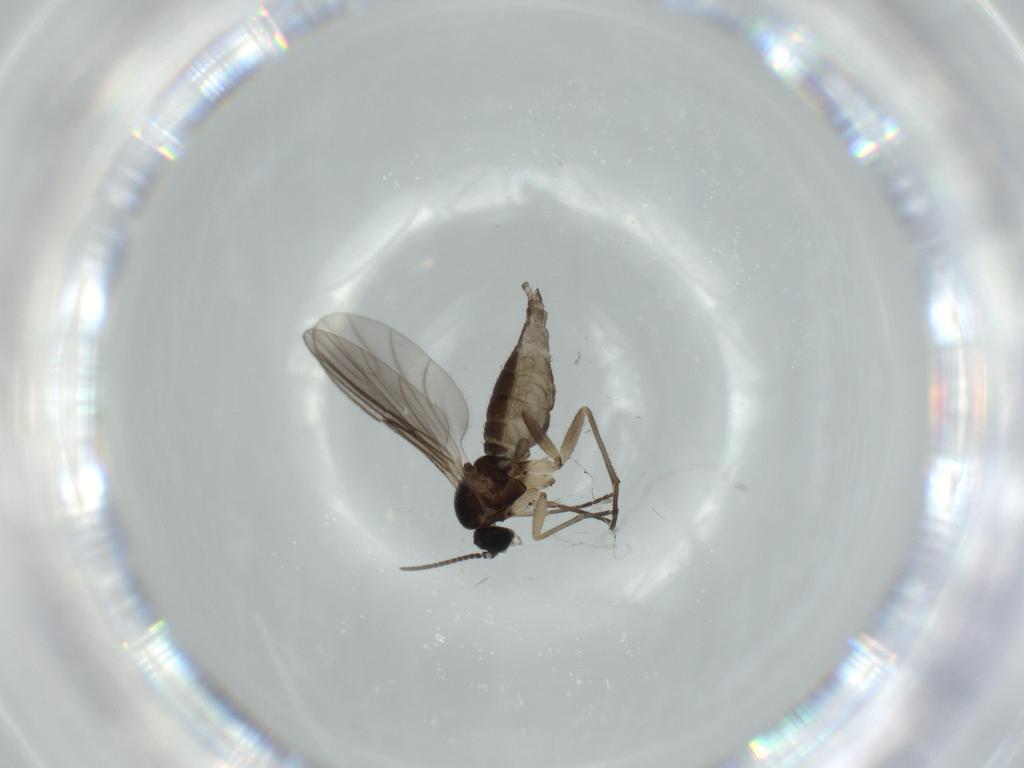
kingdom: Animalia
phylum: Arthropoda
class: Insecta
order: Diptera
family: Sciaridae
